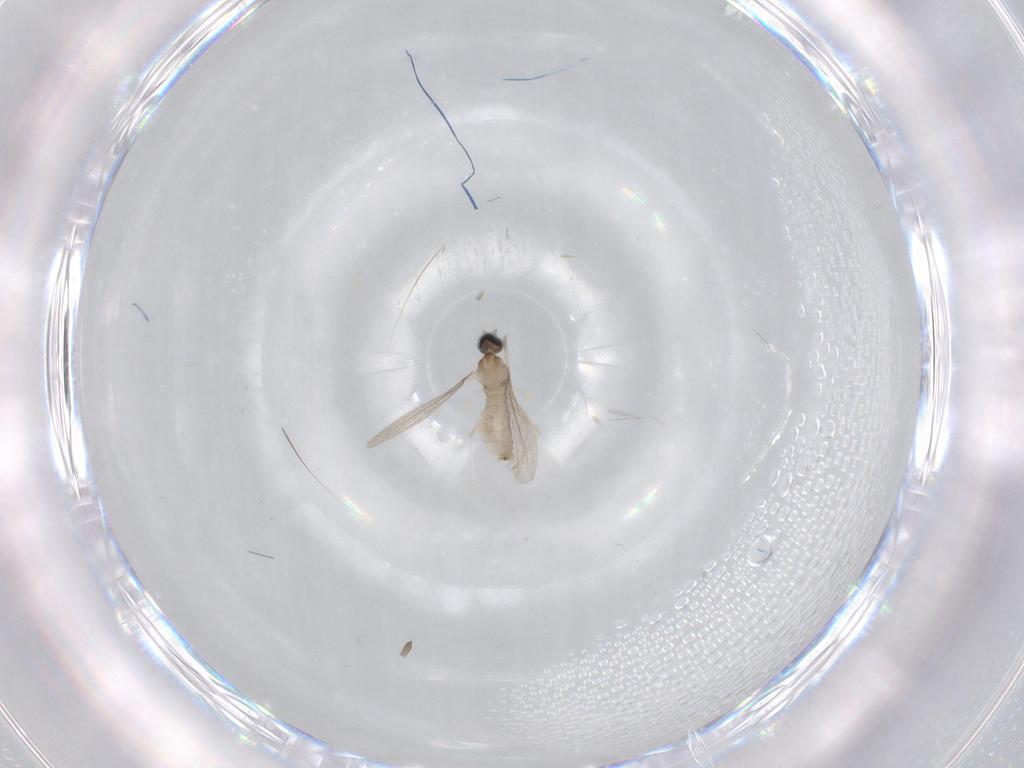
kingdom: Animalia
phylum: Arthropoda
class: Insecta
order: Diptera
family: Cecidomyiidae
